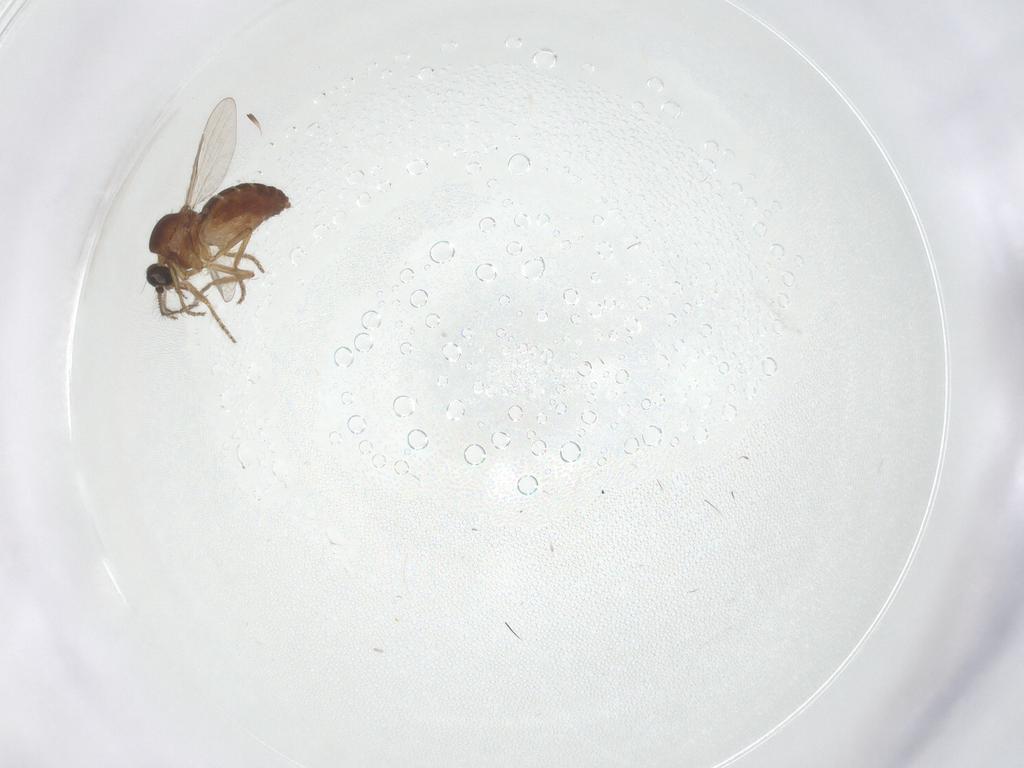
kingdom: Animalia
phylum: Arthropoda
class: Insecta
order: Diptera
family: Ceratopogonidae
